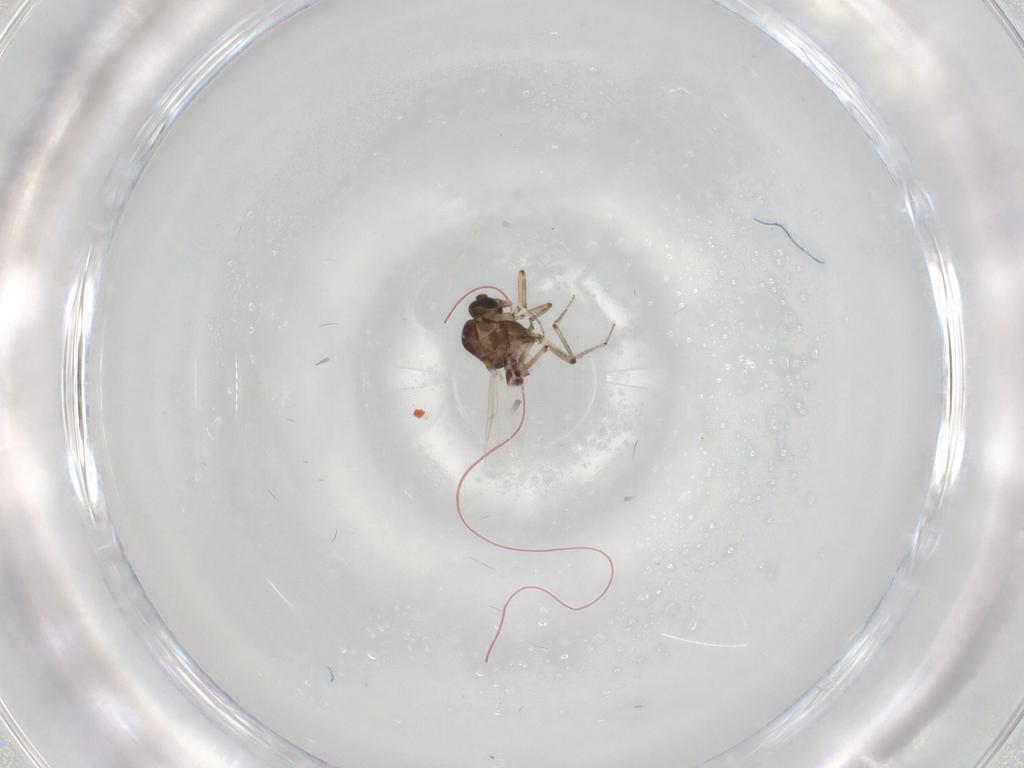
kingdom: Animalia
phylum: Arthropoda
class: Insecta
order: Diptera
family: Ceratopogonidae
